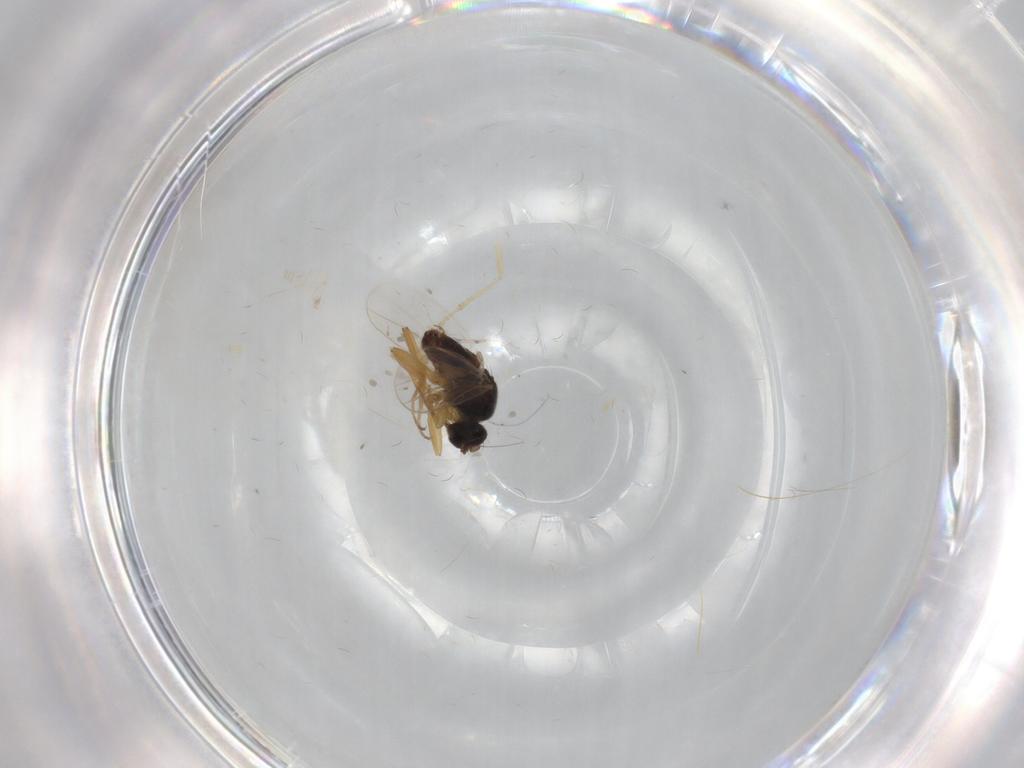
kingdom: Animalia
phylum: Arthropoda
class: Insecta
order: Diptera
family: Hybotidae
